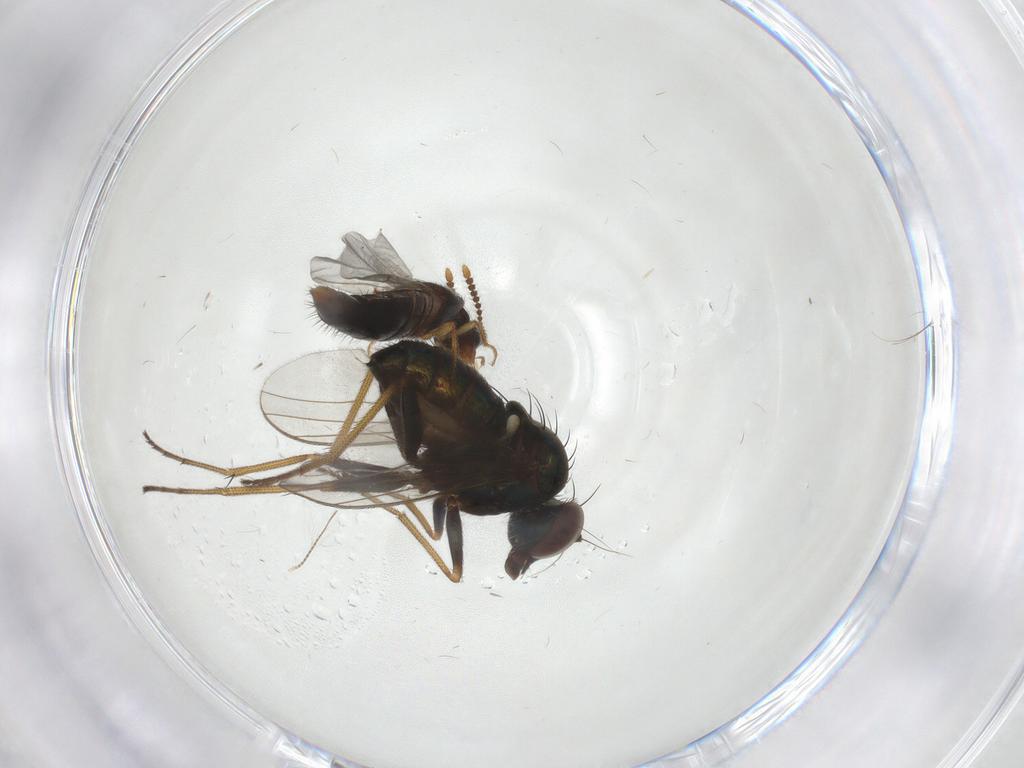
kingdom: Animalia
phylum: Arthropoda
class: Insecta
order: Diptera
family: Dolichopodidae
